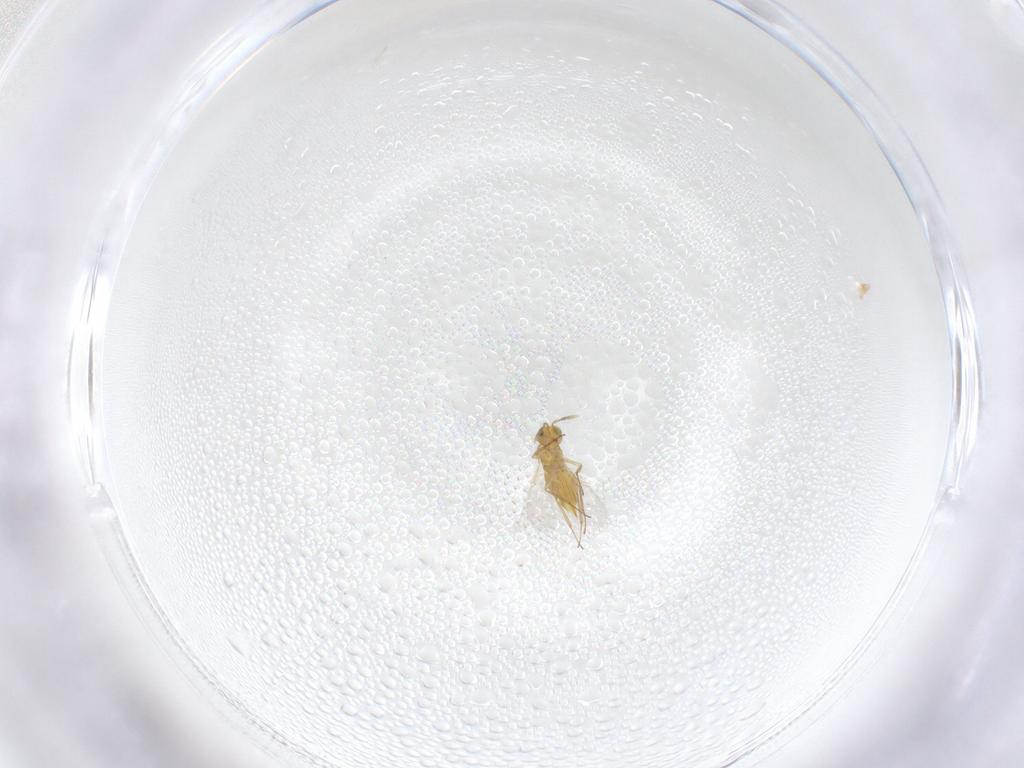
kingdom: Animalia
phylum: Arthropoda
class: Insecta
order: Hymenoptera
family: Aphelinidae
